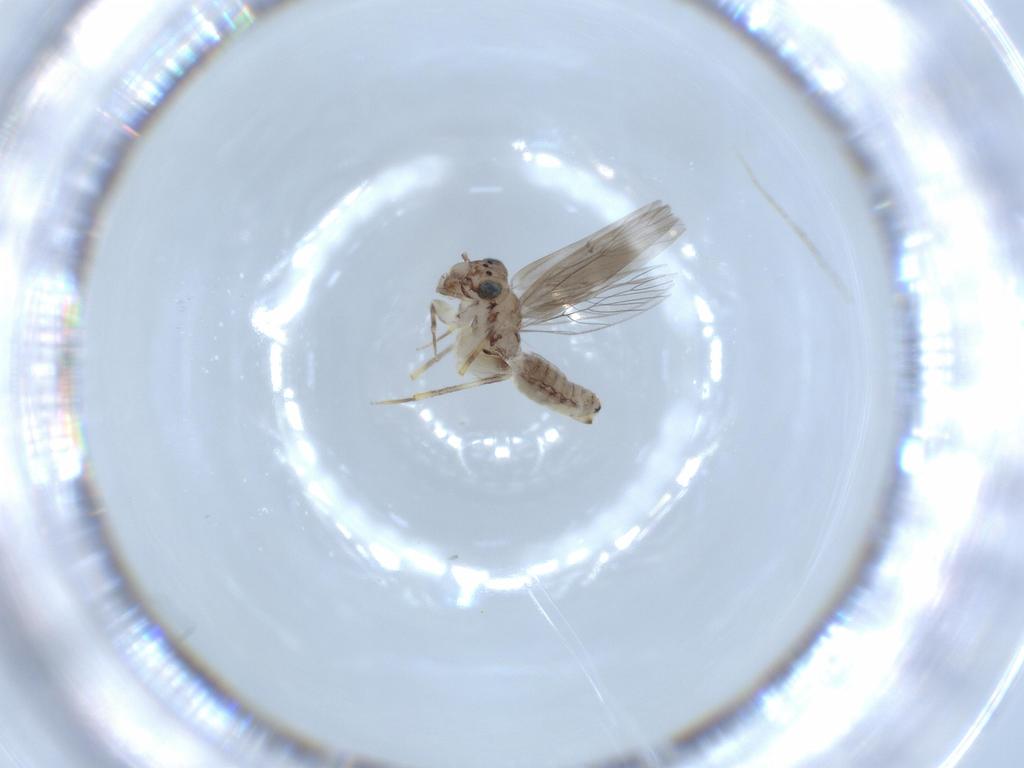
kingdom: Animalia
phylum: Arthropoda
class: Insecta
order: Psocodea
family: Lepidopsocidae
